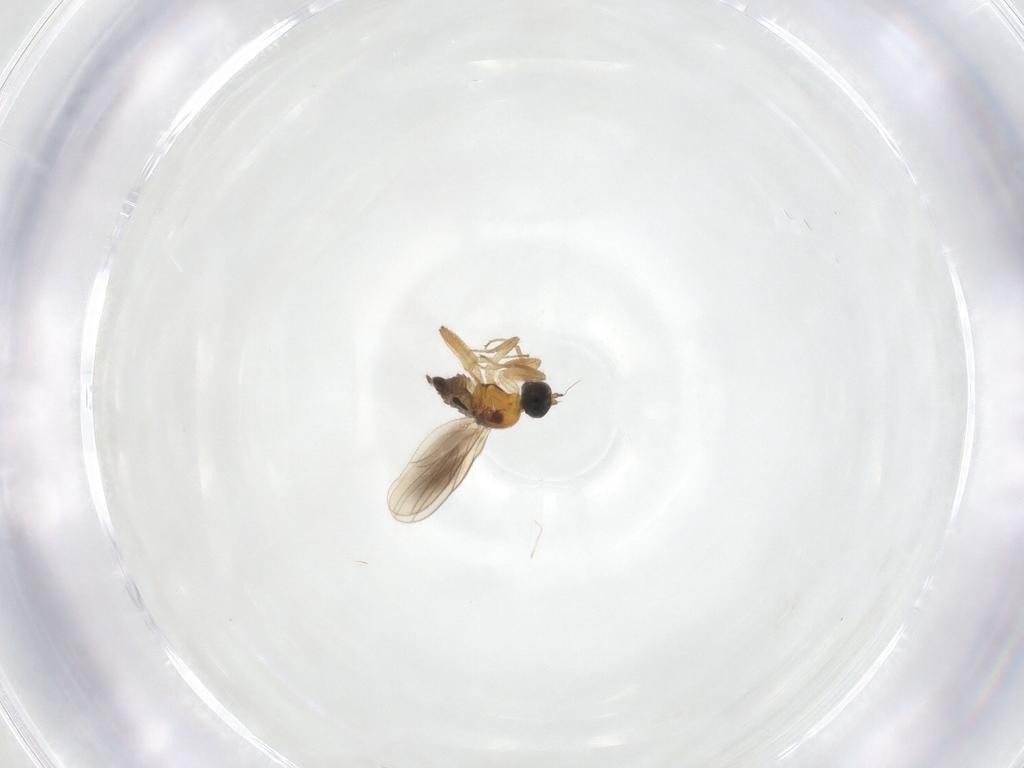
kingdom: Animalia
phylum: Arthropoda
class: Insecta
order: Diptera
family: Hybotidae
